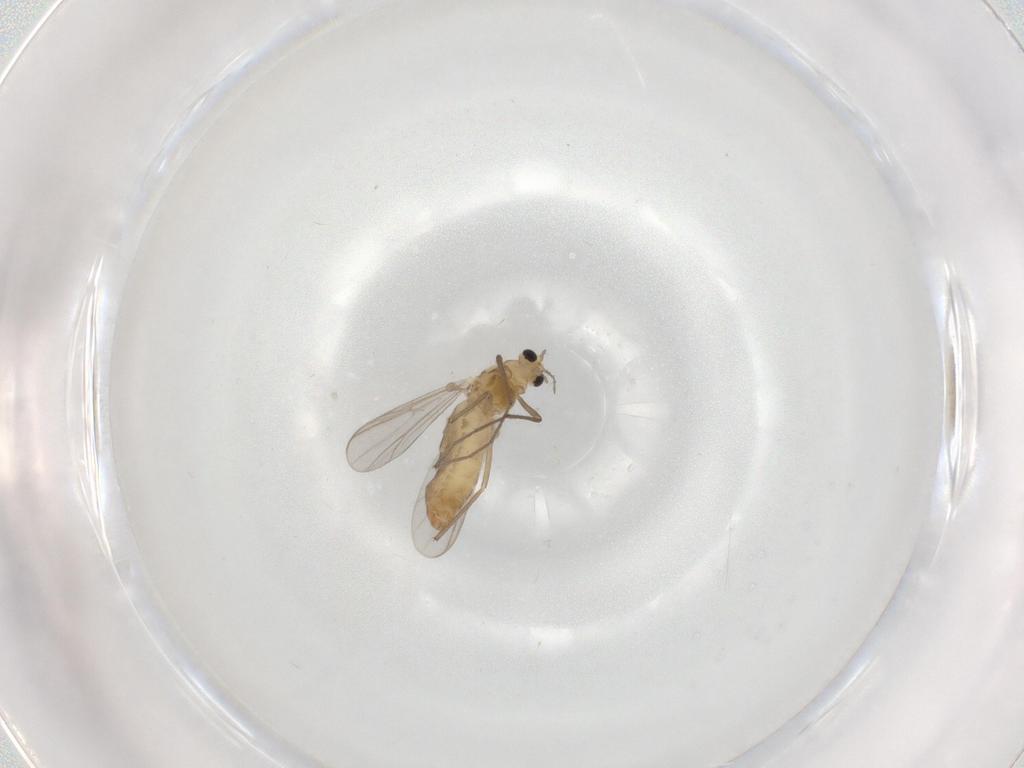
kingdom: Animalia
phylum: Arthropoda
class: Insecta
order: Diptera
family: Chironomidae
